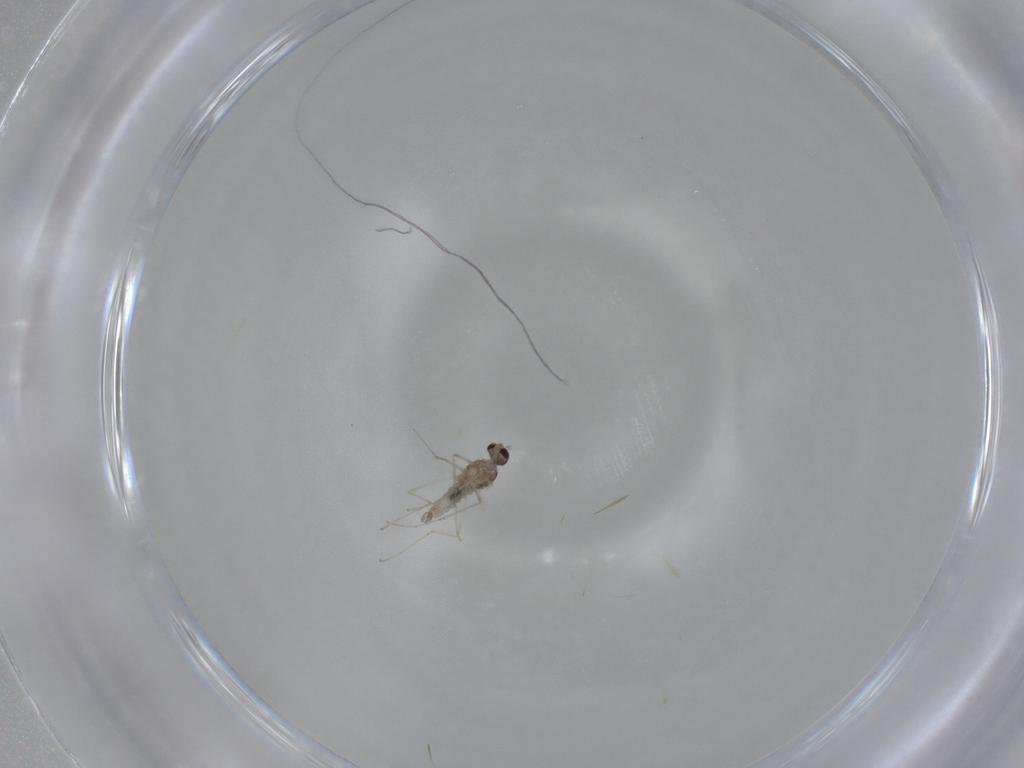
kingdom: Animalia
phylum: Arthropoda
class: Insecta
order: Diptera
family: Cecidomyiidae
